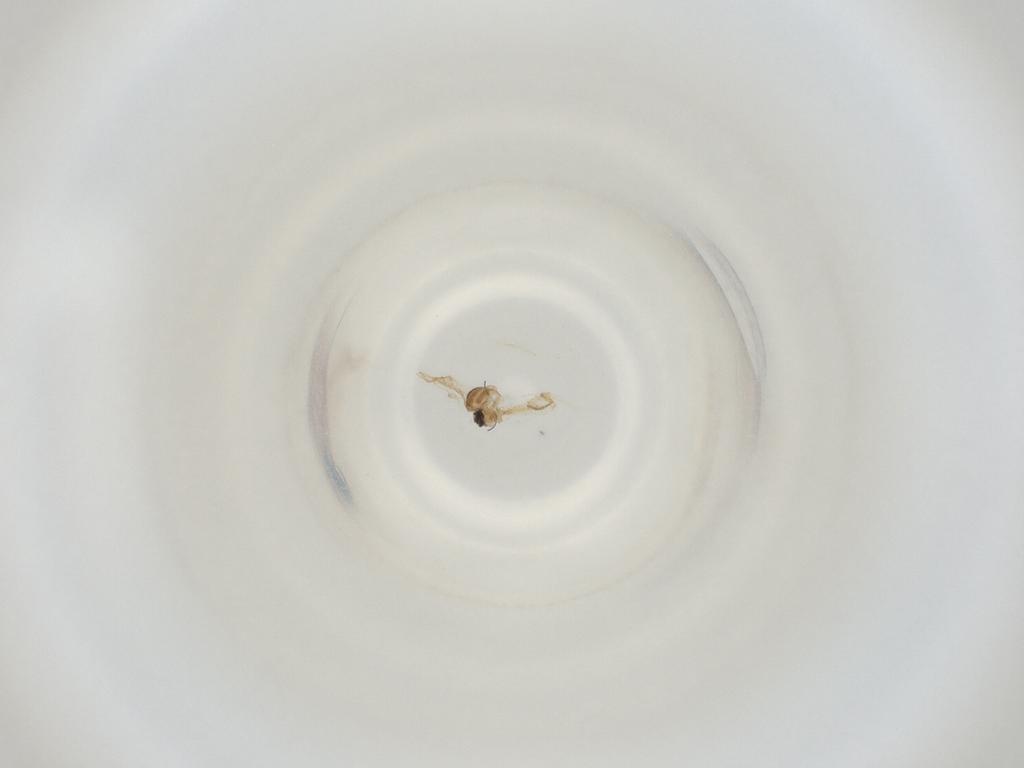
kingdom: Animalia
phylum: Arthropoda
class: Insecta
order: Diptera
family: Cecidomyiidae
